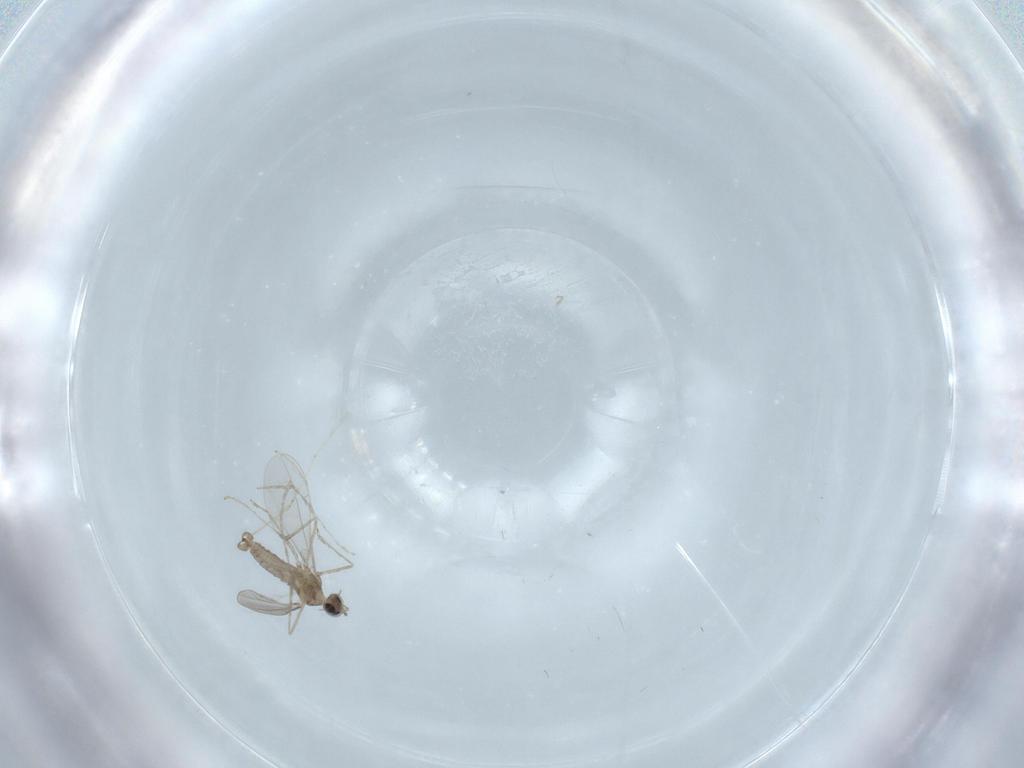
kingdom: Animalia
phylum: Arthropoda
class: Insecta
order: Diptera
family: Cecidomyiidae
